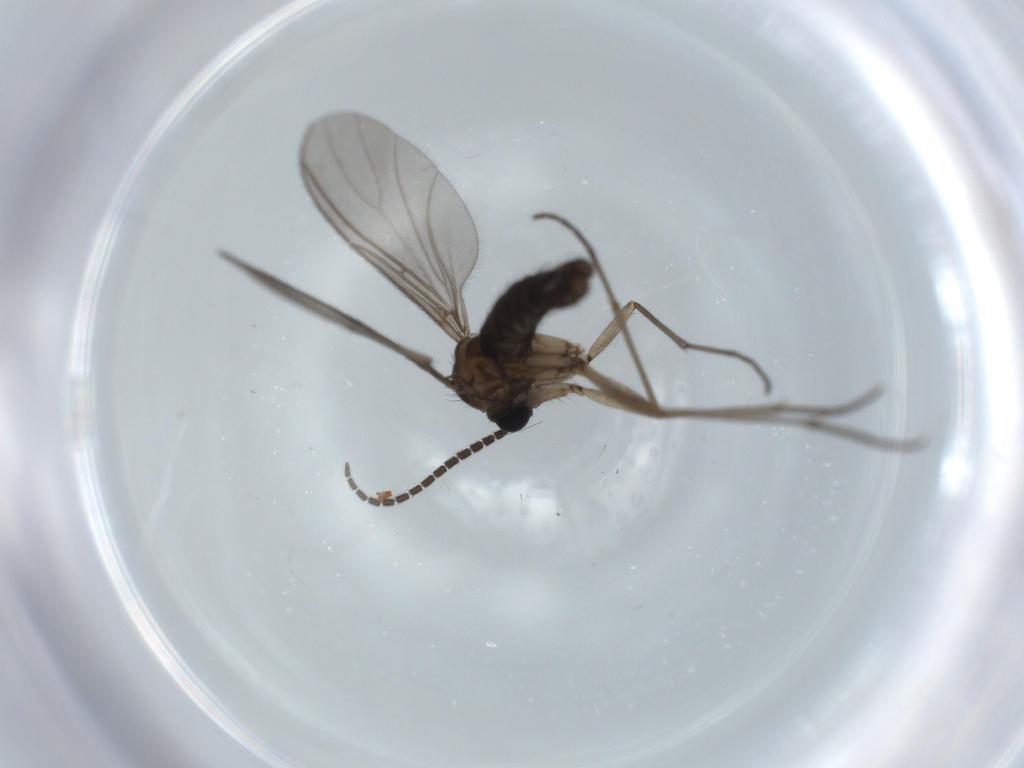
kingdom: Animalia
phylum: Arthropoda
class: Insecta
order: Diptera
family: Sciaridae
